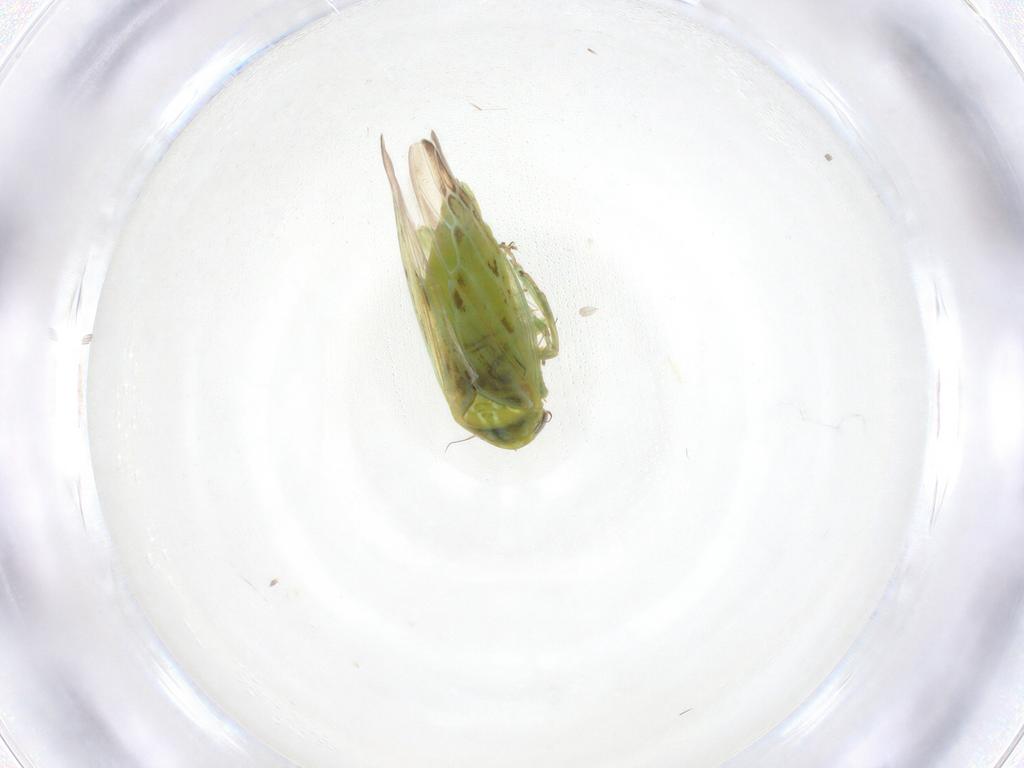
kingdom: Animalia
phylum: Arthropoda
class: Insecta
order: Hemiptera
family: Cicadellidae
